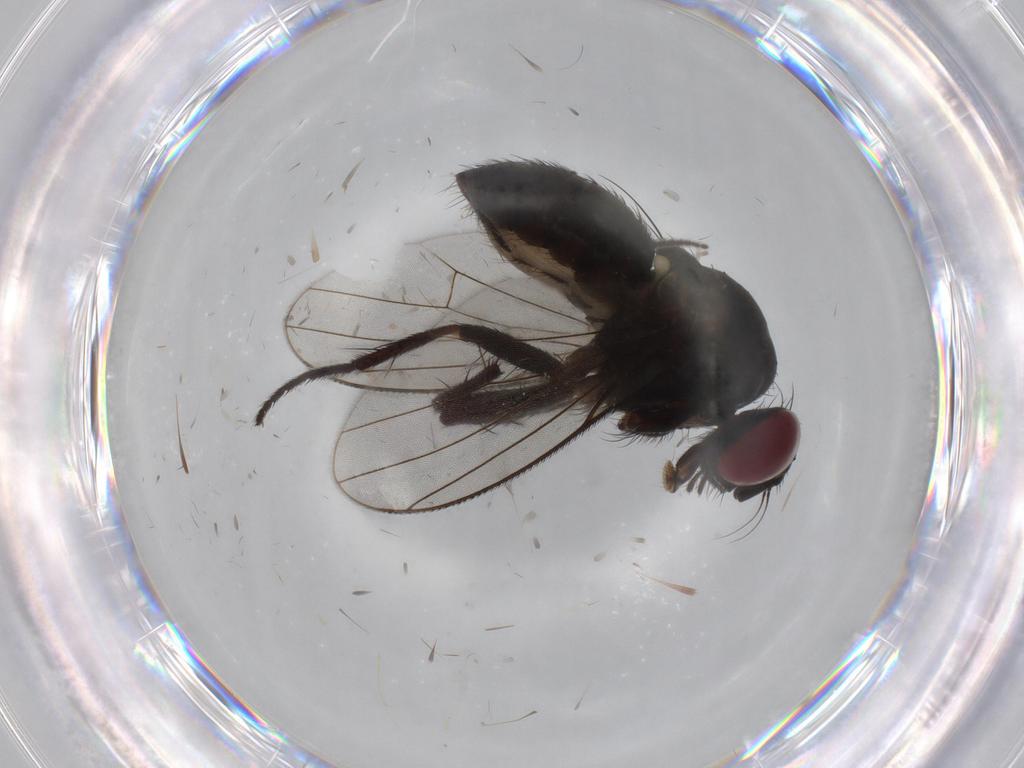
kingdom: Animalia
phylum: Arthropoda
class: Insecta
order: Diptera
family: Muscidae
